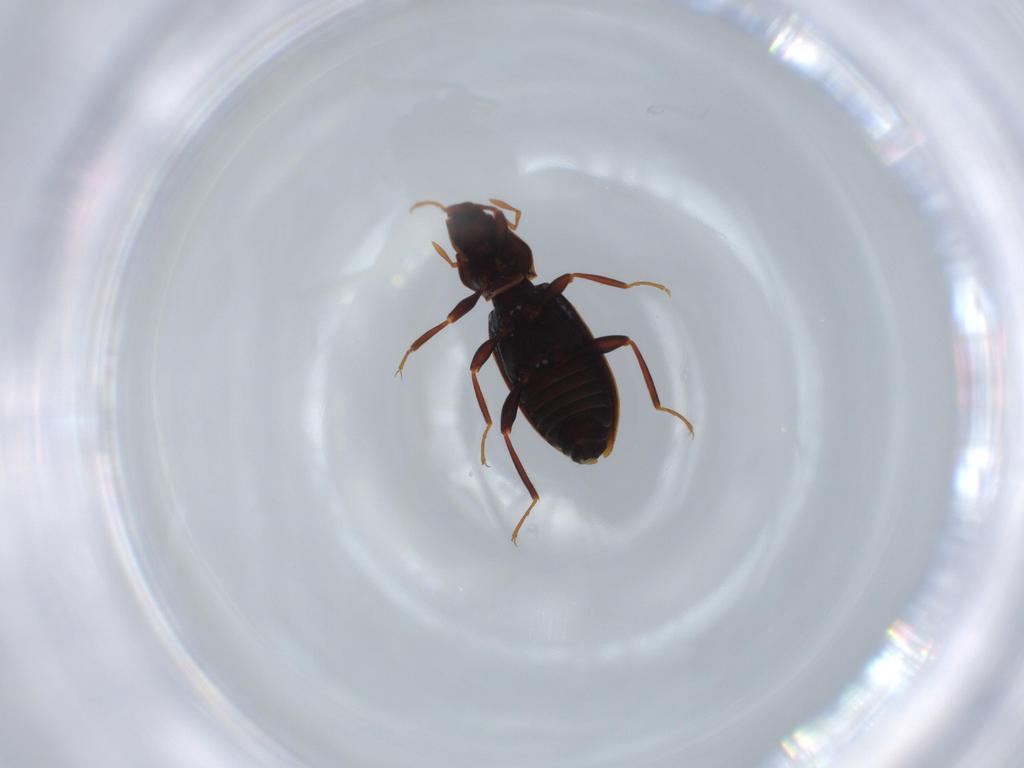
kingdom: Animalia
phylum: Arthropoda
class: Insecta
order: Coleoptera
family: Hydraenidae
